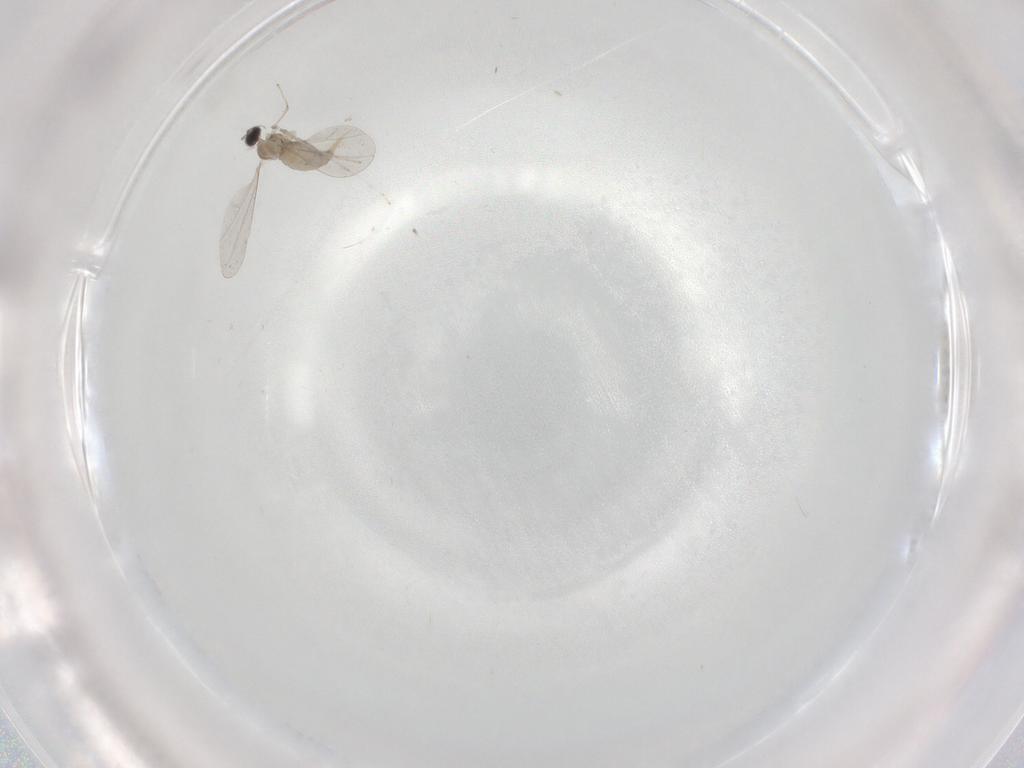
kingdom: Animalia
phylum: Arthropoda
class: Insecta
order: Diptera
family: Cecidomyiidae
